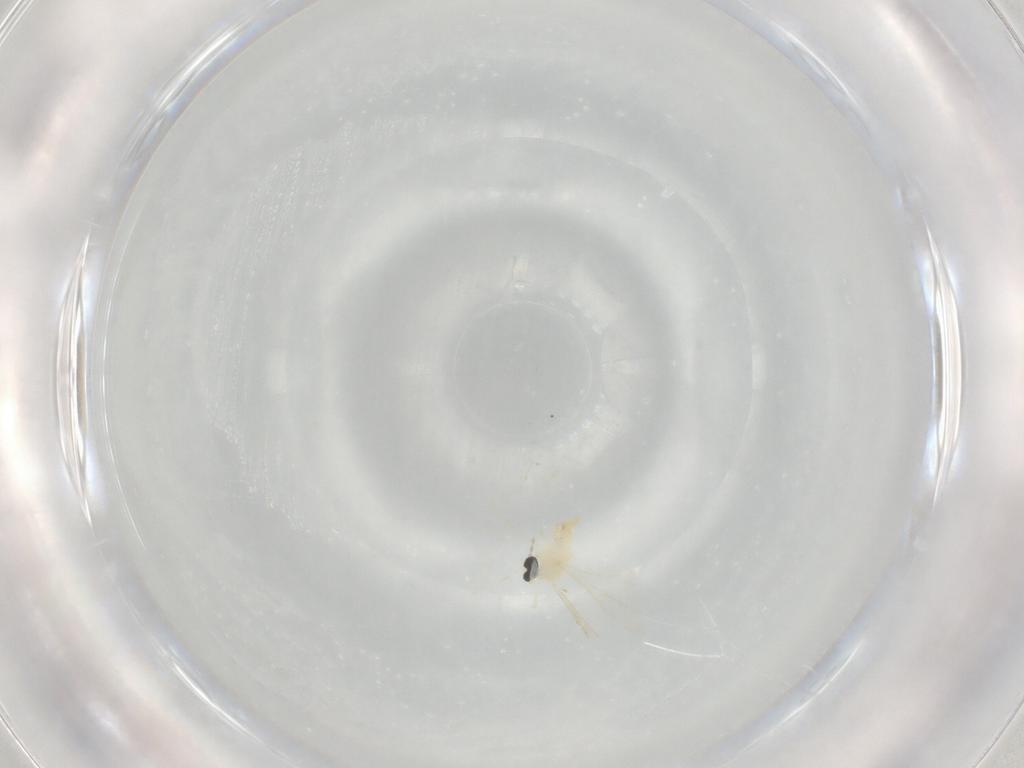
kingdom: Animalia
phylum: Arthropoda
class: Insecta
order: Diptera
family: Cecidomyiidae
